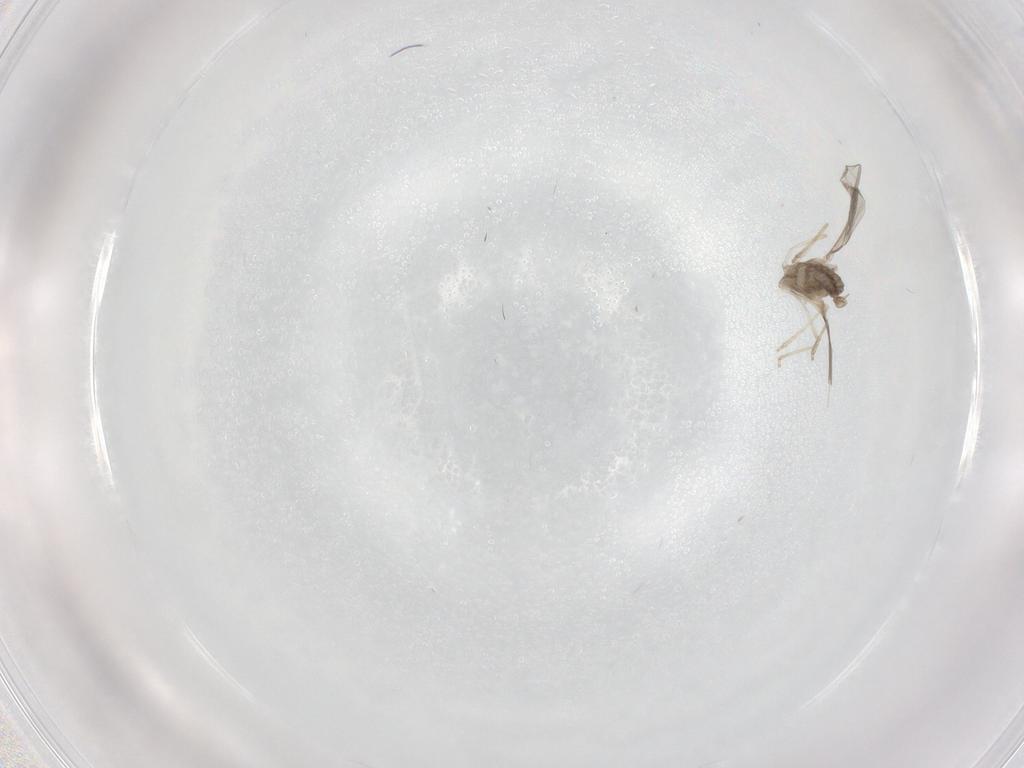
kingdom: Animalia
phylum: Arthropoda
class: Insecta
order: Diptera
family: Cecidomyiidae
